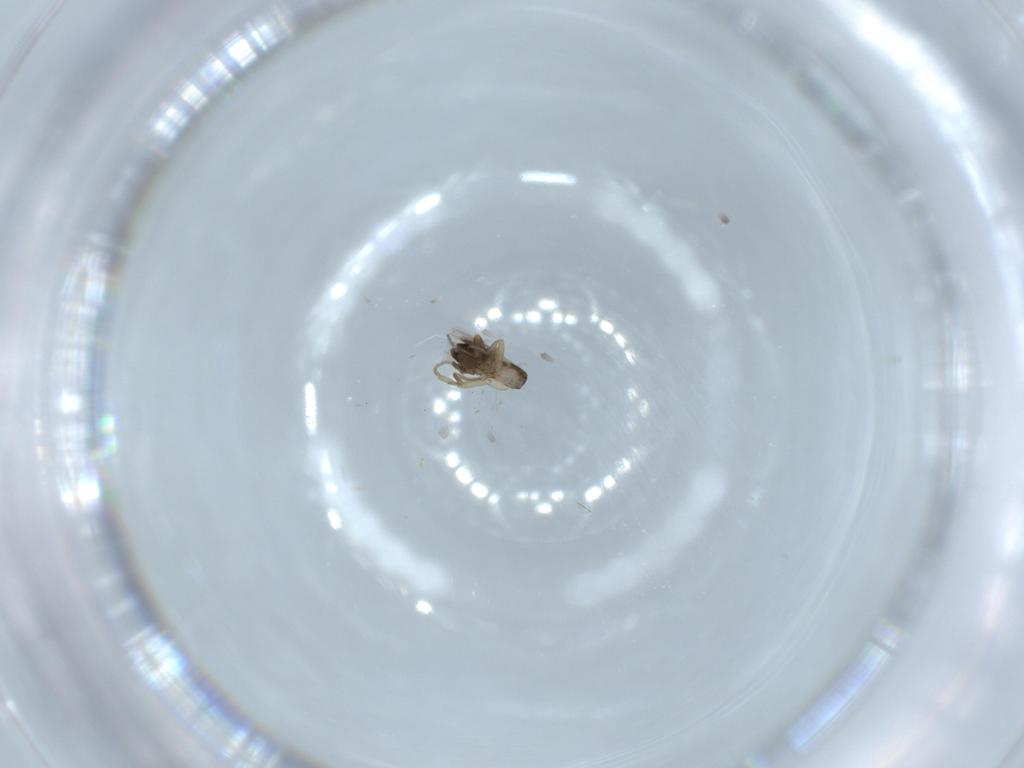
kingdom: Animalia
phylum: Arthropoda
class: Insecta
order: Diptera
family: Phoridae
